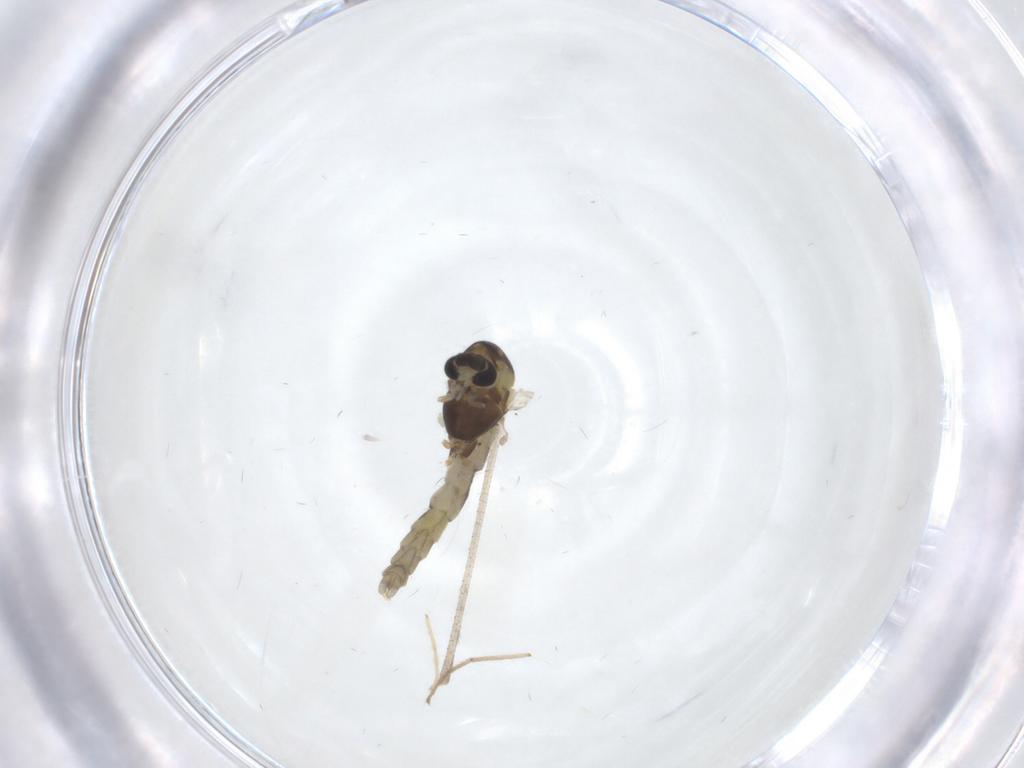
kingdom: Animalia
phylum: Arthropoda
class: Insecta
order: Diptera
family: Chironomidae
